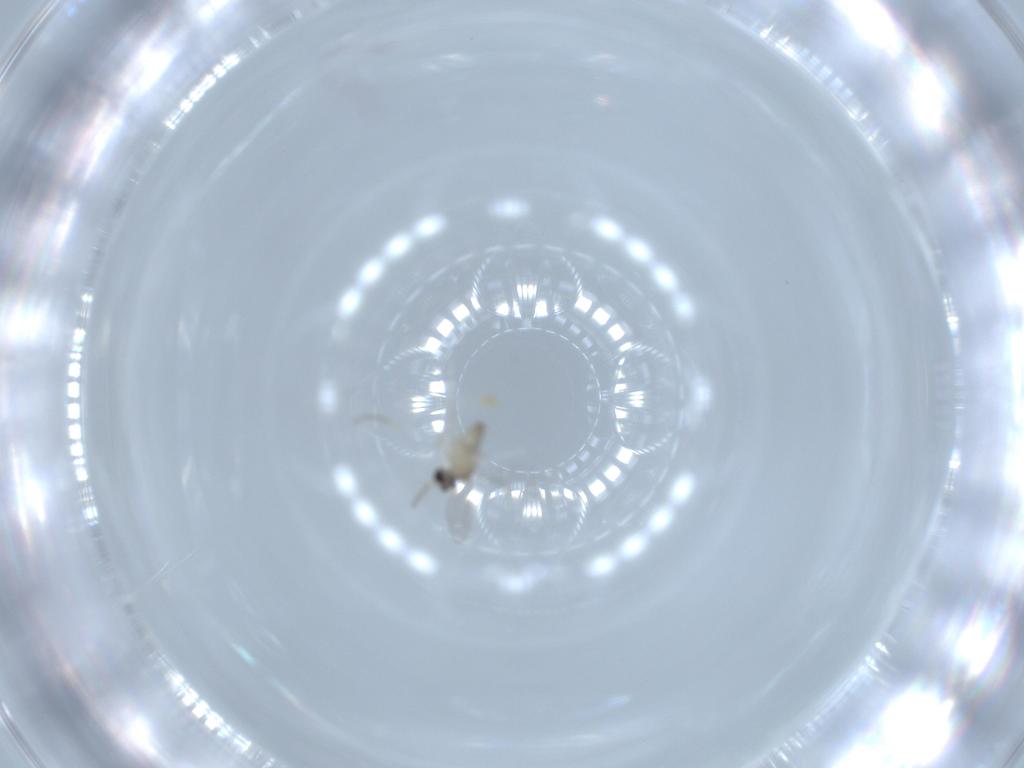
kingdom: Animalia
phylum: Arthropoda
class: Insecta
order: Diptera
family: Cecidomyiidae
